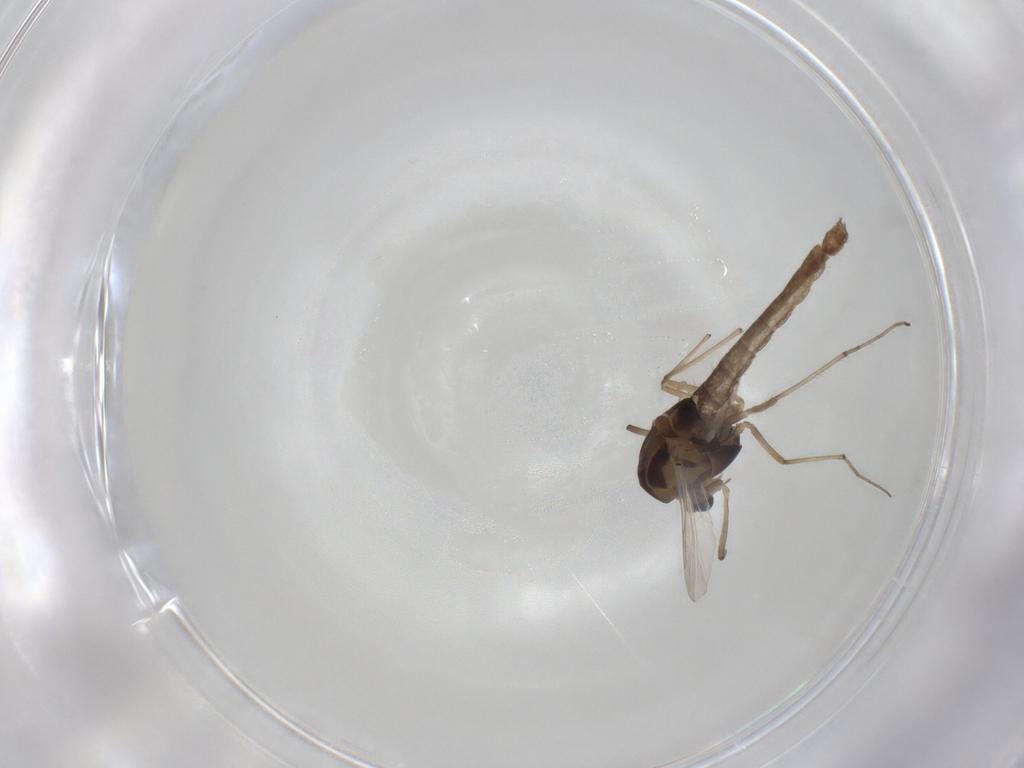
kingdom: Animalia
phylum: Arthropoda
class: Insecta
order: Diptera
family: Chironomidae
